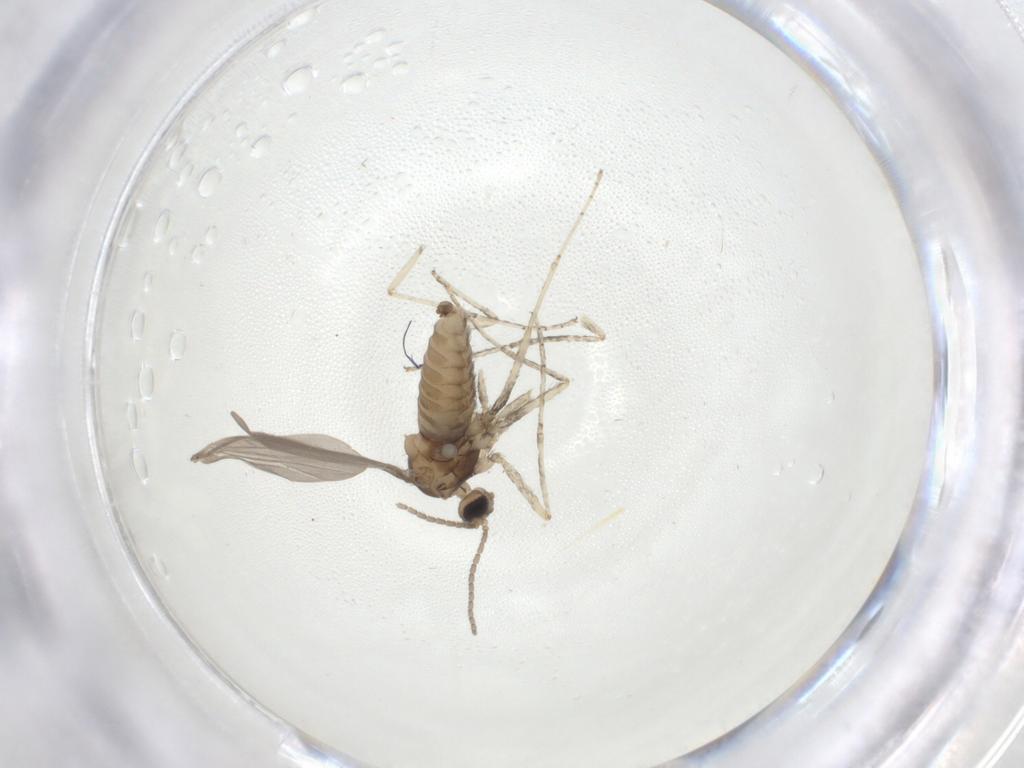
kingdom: Animalia
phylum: Arthropoda
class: Insecta
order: Diptera
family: Cecidomyiidae
